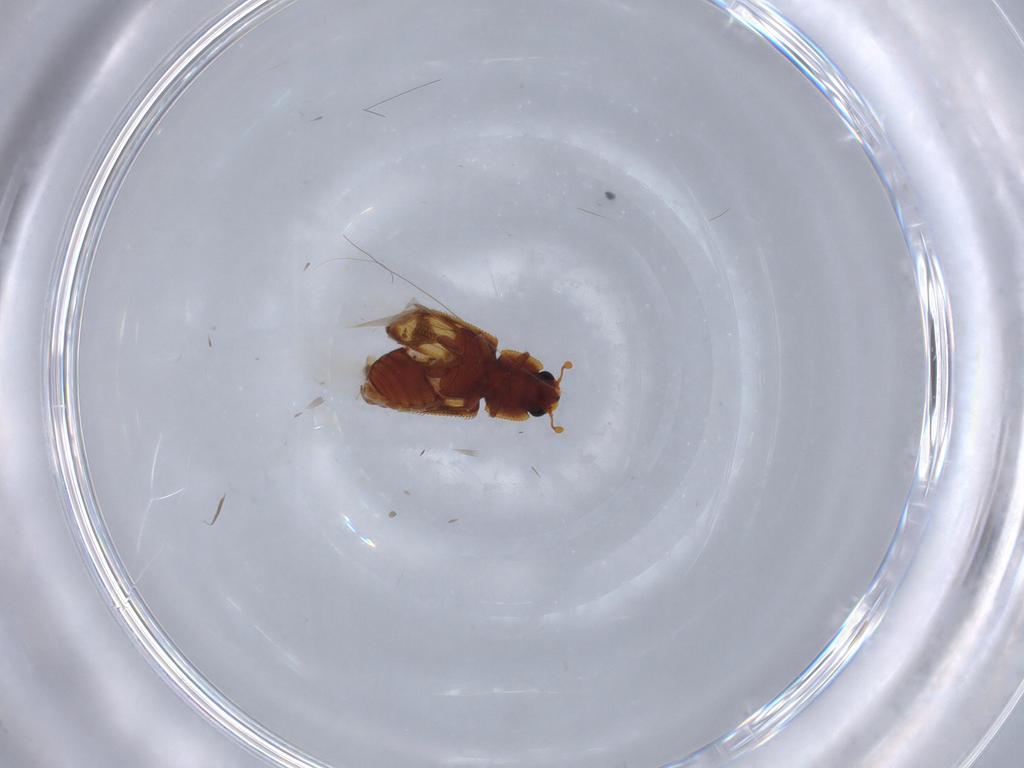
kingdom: Animalia
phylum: Arthropoda
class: Insecta
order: Coleoptera
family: Zopheridae
